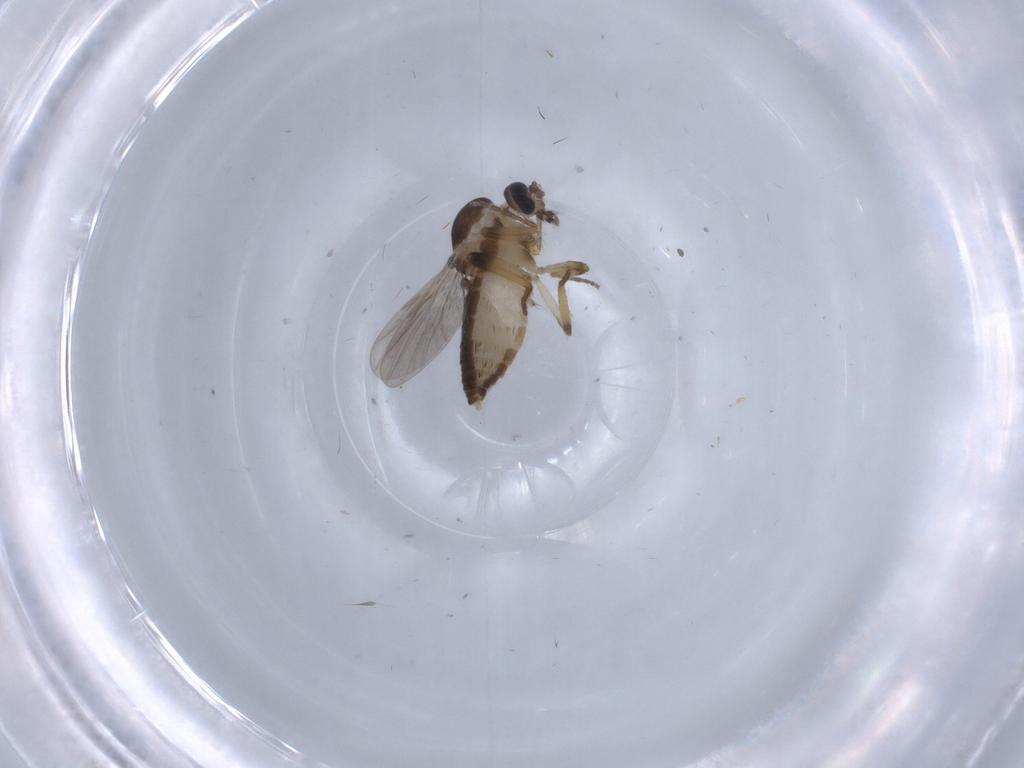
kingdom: Animalia
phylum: Arthropoda
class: Insecta
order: Diptera
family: Ceratopogonidae
